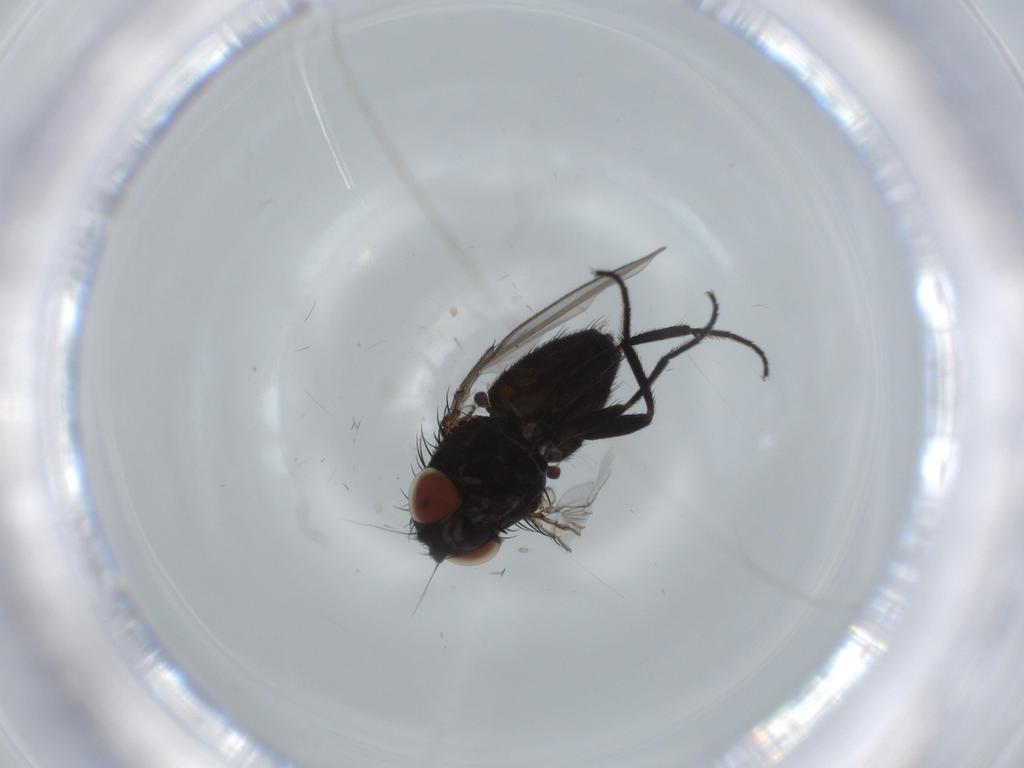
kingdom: Animalia
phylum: Arthropoda
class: Insecta
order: Diptera
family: Milichiidae
